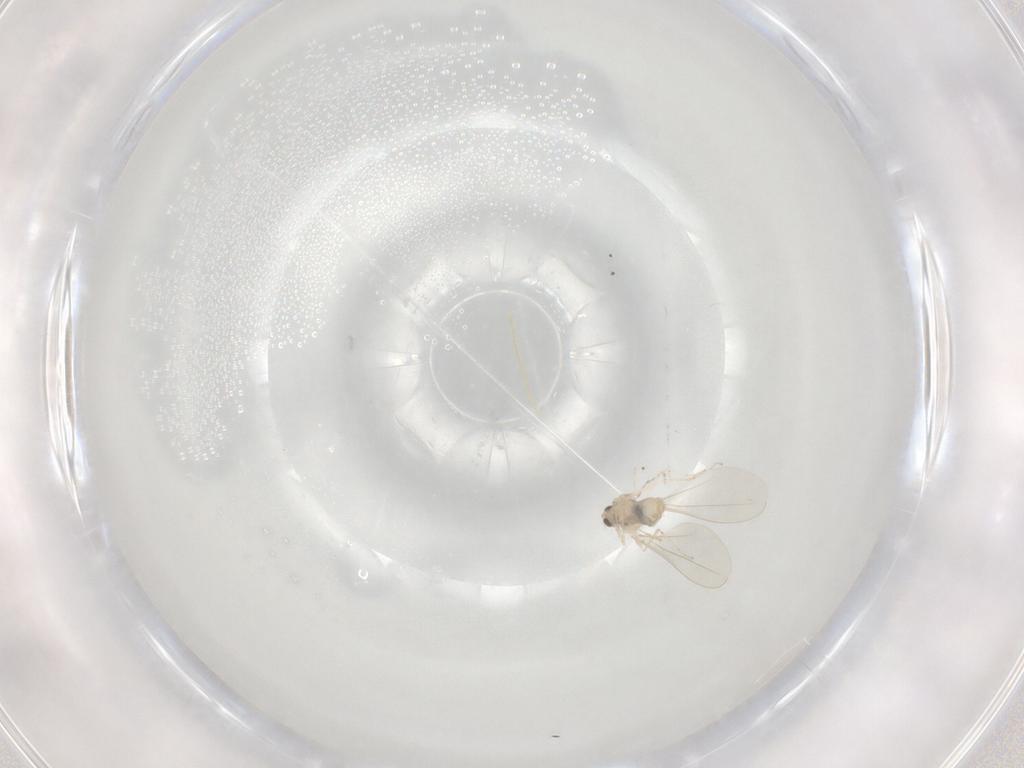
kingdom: Animalia
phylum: Arthropoda
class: Insecta
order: Diptera
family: Cecidomyiidae
